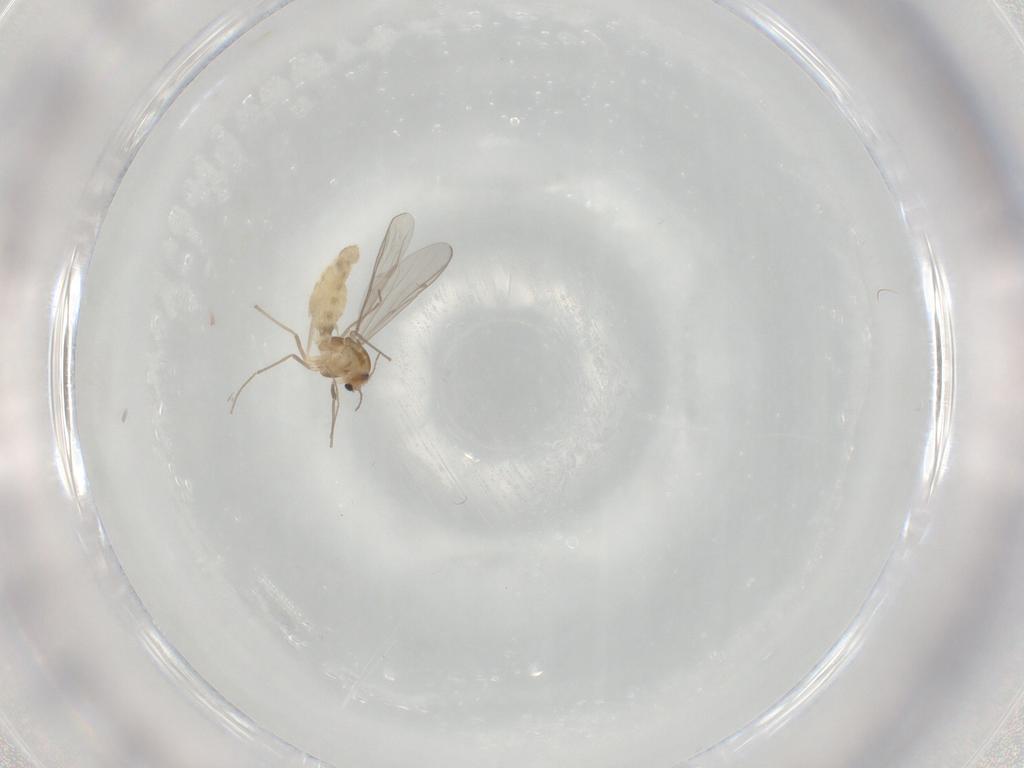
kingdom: Animalia
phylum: Arthropoda
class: Insecta
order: Diptera
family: Chironomidae
